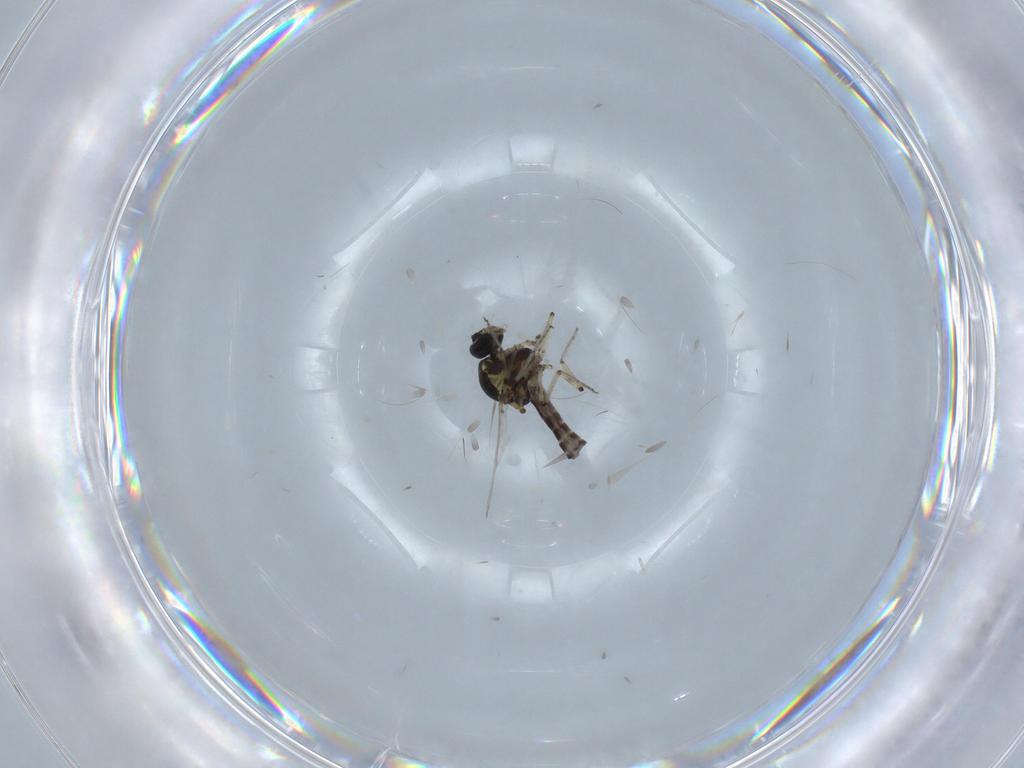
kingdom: Animalia
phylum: Arthropoda
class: Insecta
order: Diptera
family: Ceratopogonidae
